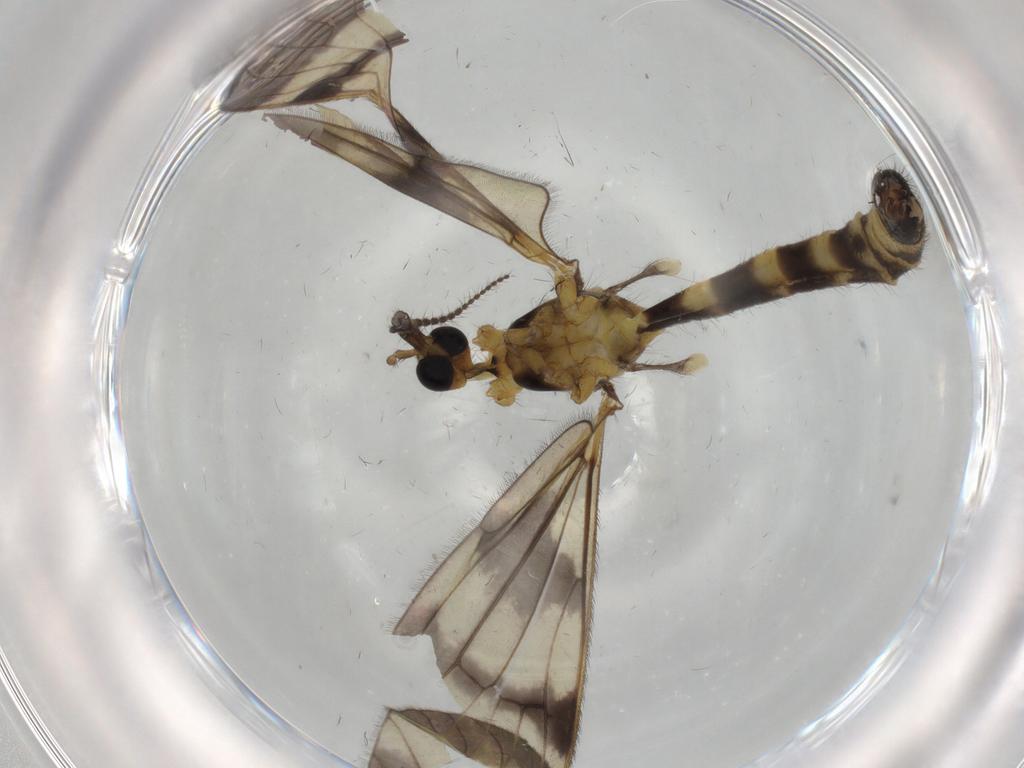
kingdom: Animalia
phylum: Arthropoda
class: Insecta
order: Diptera
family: Limoniidae
